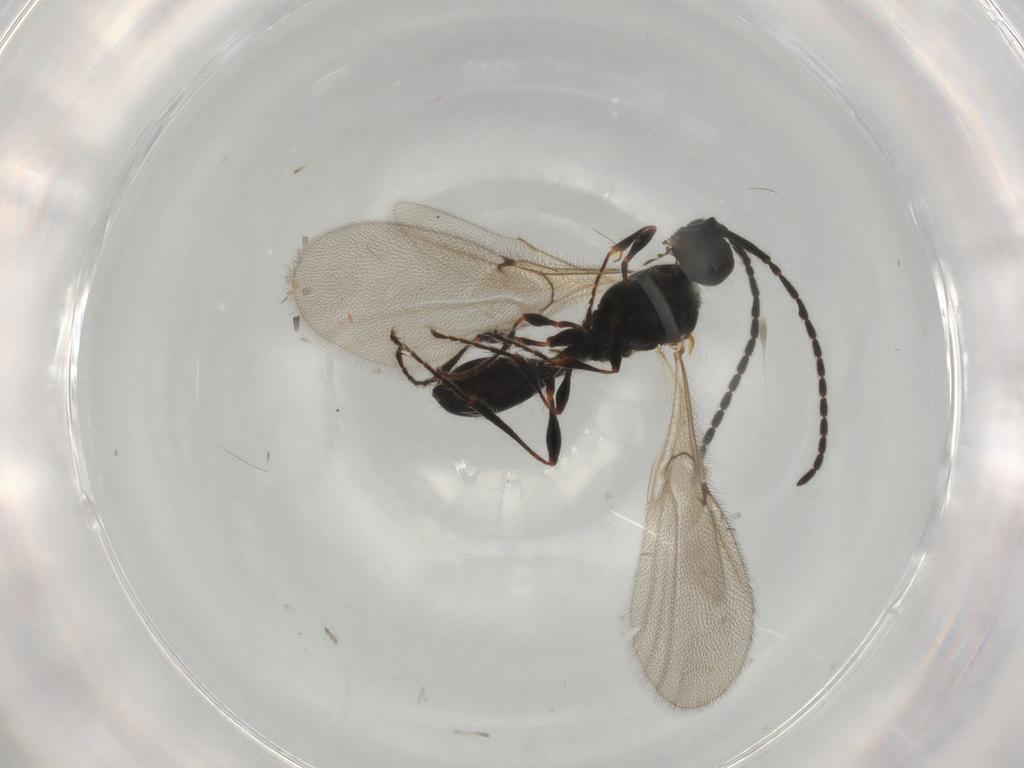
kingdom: Animalia
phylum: Arthropoda
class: Insecta
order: Hymenoptera
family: Diapriidae
